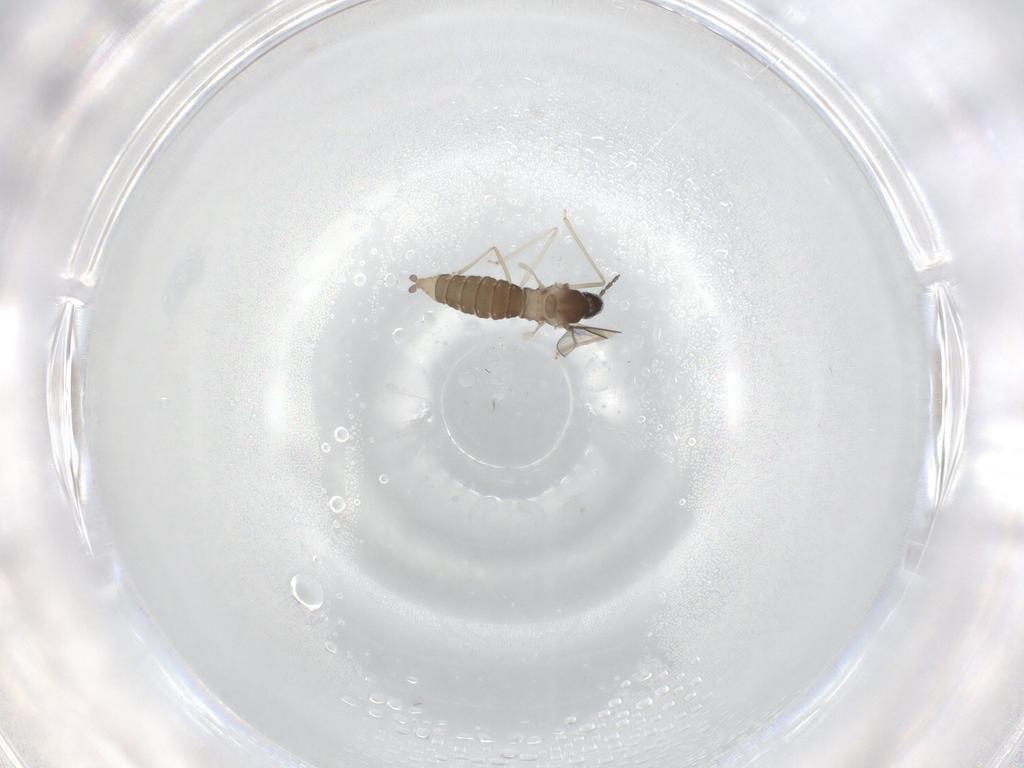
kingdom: Animalia
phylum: Arthropoda
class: Insecta
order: Diptera
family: Cecidomyiidae
